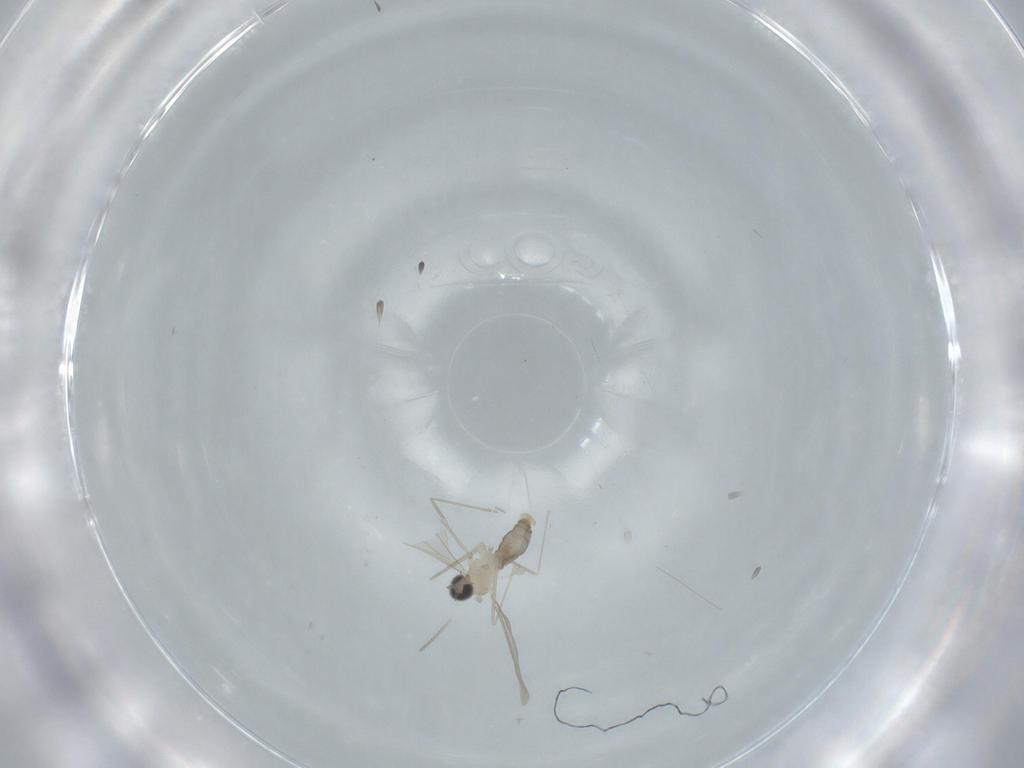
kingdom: Animalia
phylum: Arthropoda
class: Insecta
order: Diptera
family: Cecidomyiidae
